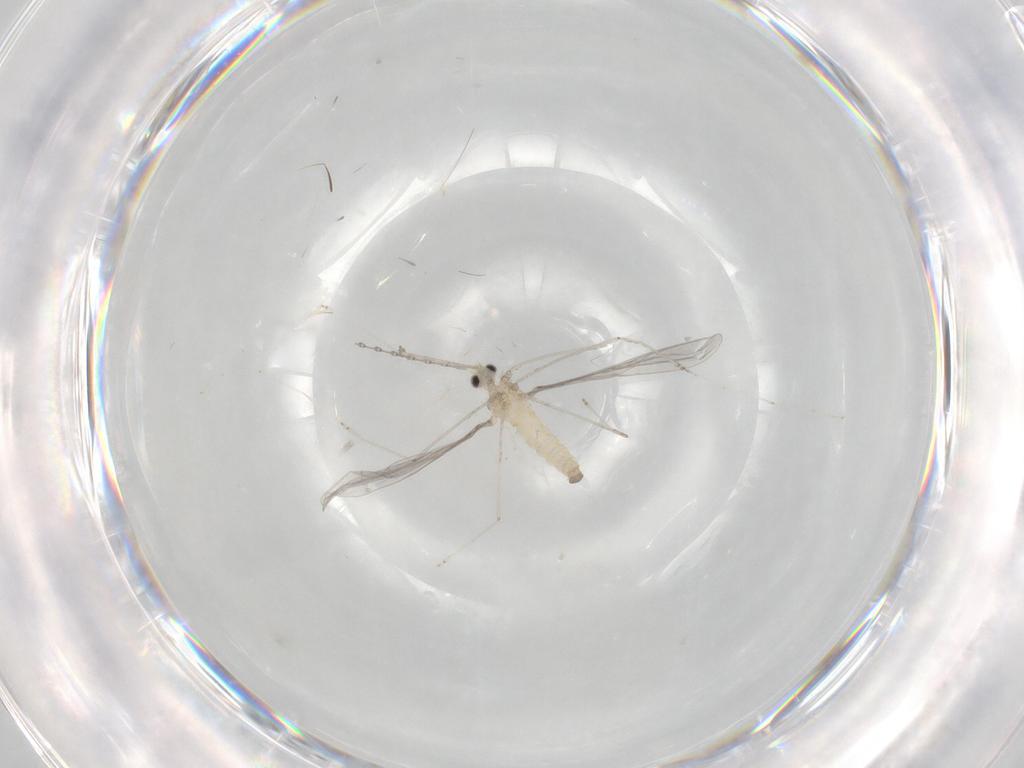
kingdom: Animalia
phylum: Arthropoda
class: Insecta
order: Diptera
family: Cecidomyiidae
